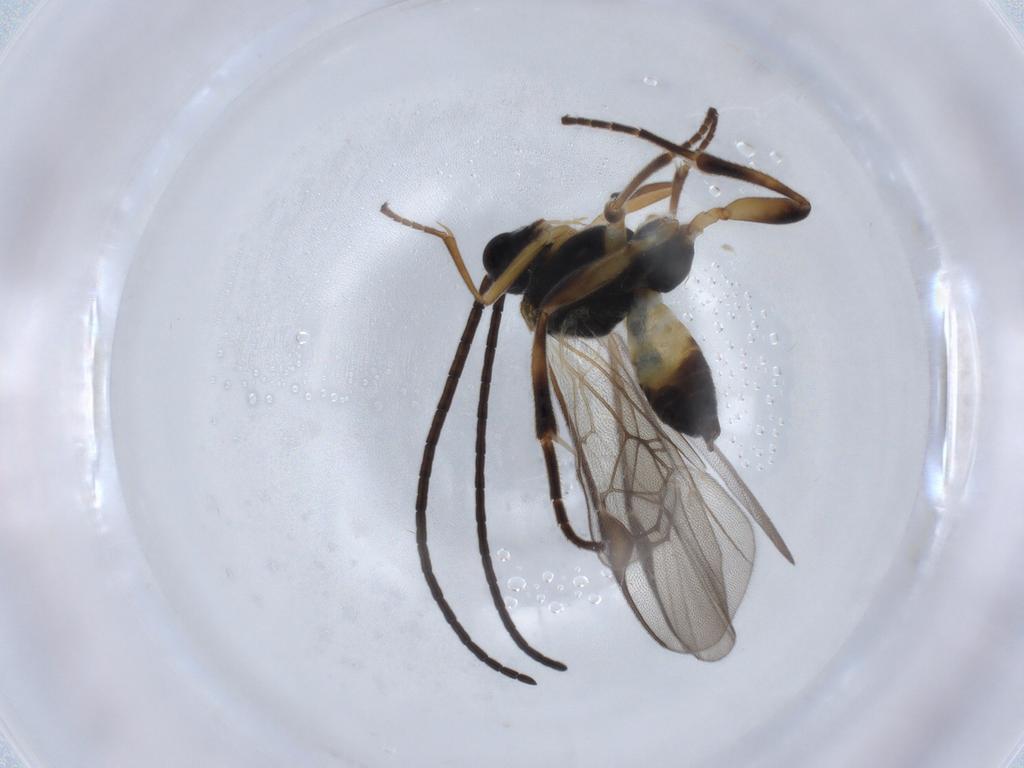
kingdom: Animalia
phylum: Arthropoda
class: Insecta
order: Hymenoptera
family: Braconidae
